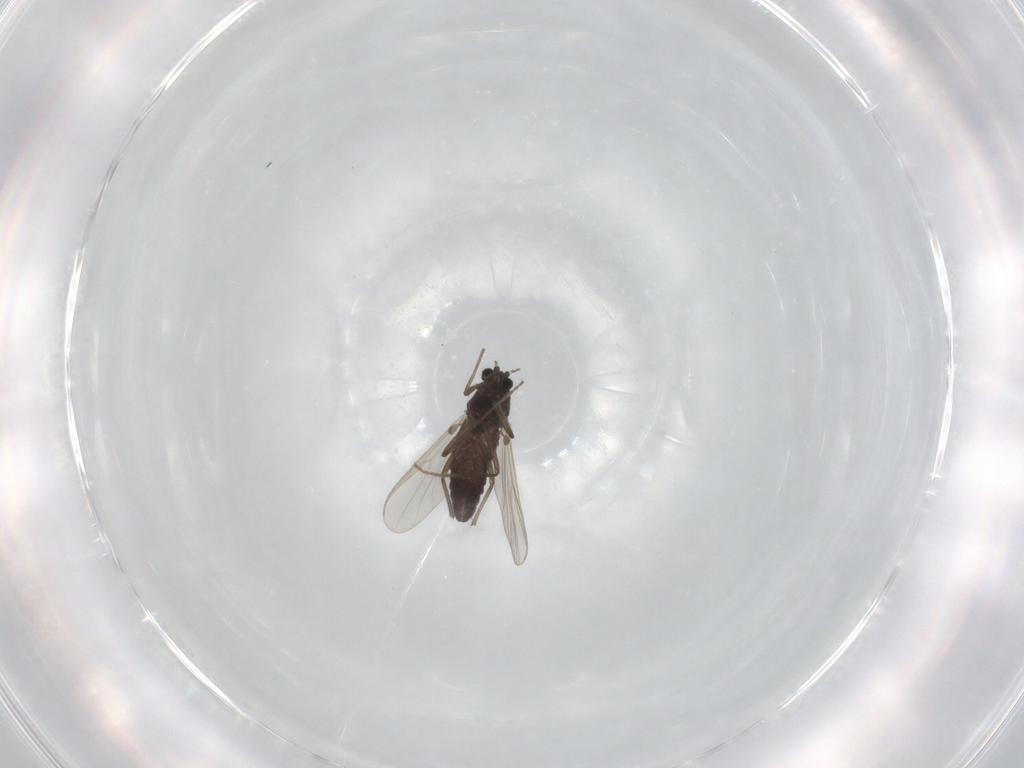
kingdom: Animalia
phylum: Arthropoda
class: Insecta
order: Diptera
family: Chironomidae
